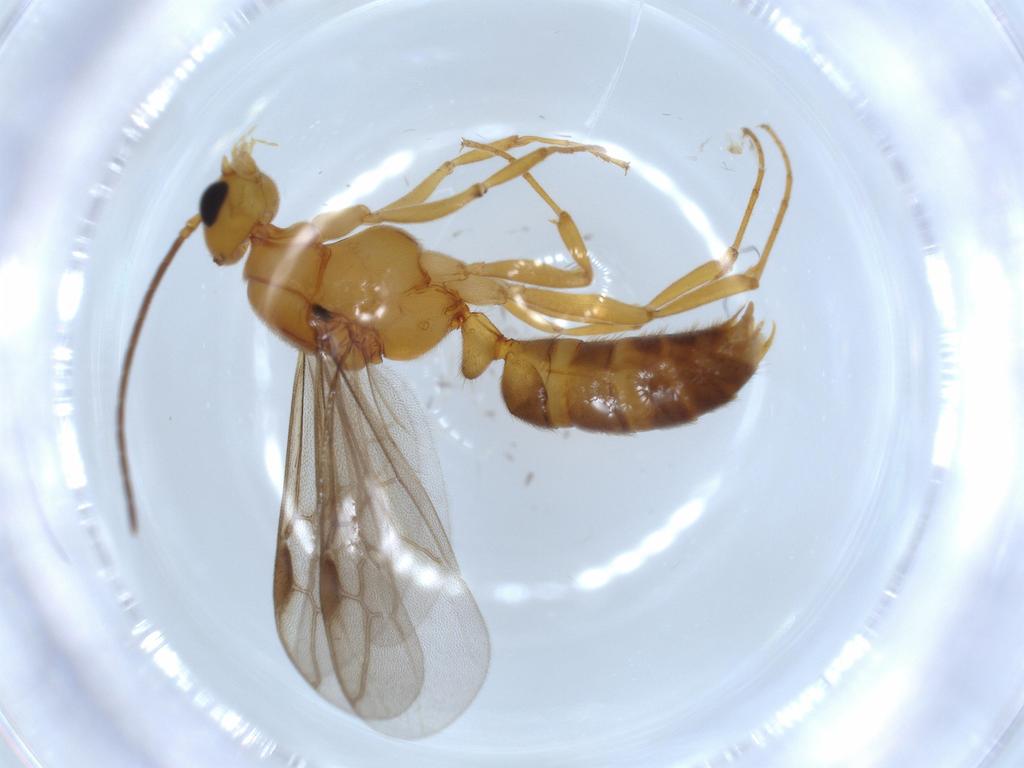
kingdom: Animalia
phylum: Arthropoda
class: Insecta
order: Hymenoptera
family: Formicidae
